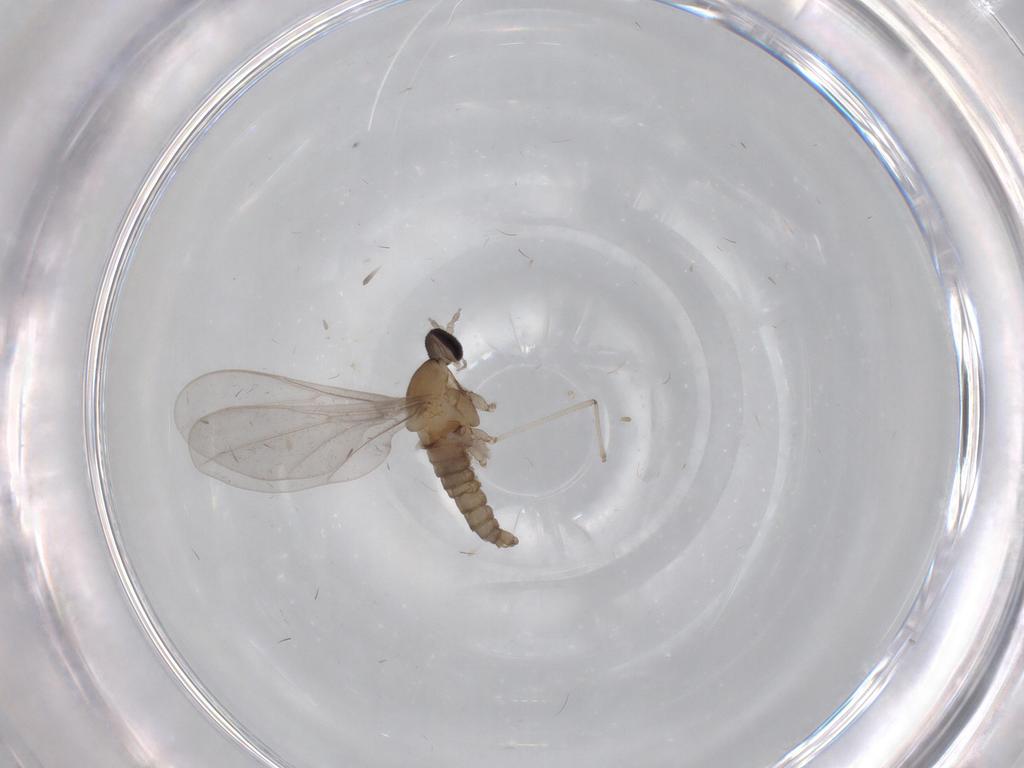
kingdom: Animalia
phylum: Arthropoda
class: Insecta
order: Diptera
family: Cecidomyiidae
